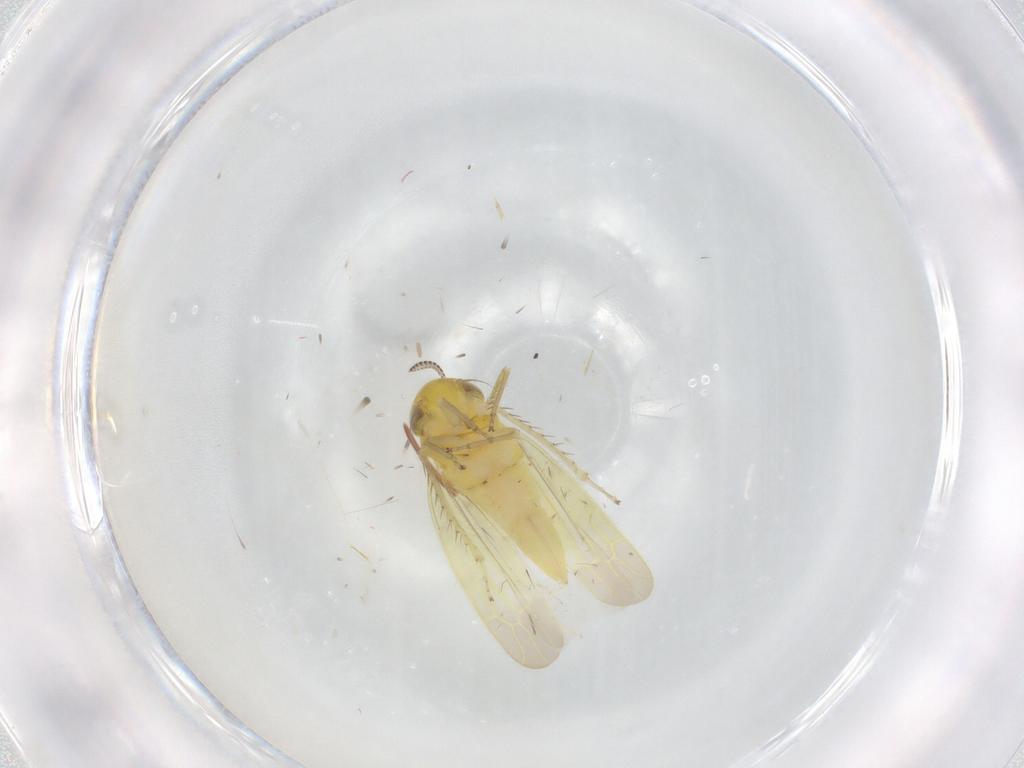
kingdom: Animalia
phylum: Arthropoda
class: Insecta
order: Hemiptera
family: Cicadellidae
